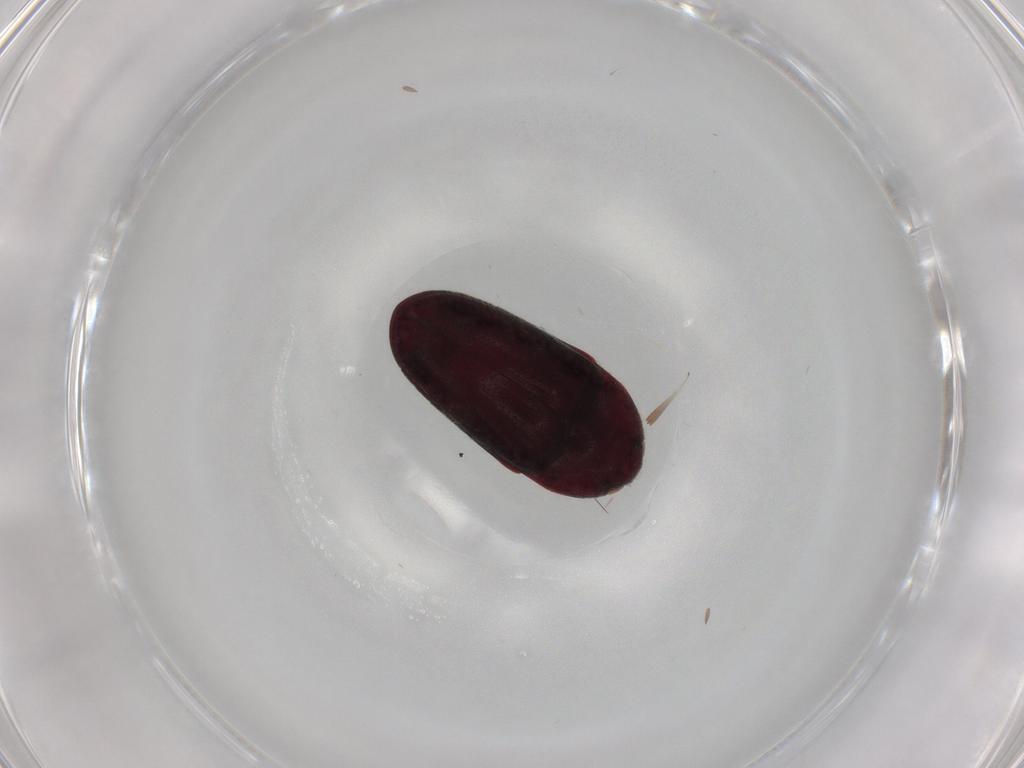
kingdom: Animalia
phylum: Arthropoda
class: Insecta
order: Coleoptera
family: Throscidae
